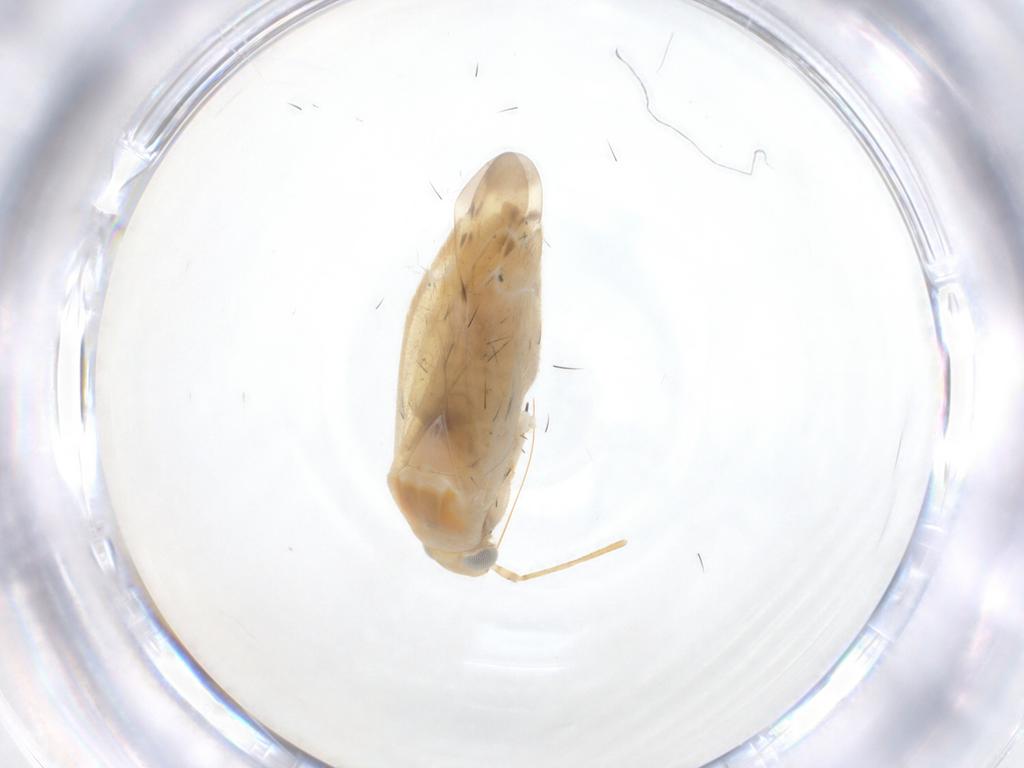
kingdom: Animalia
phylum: Arthropoda
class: Insecta
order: Hemiptera
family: Miridae
